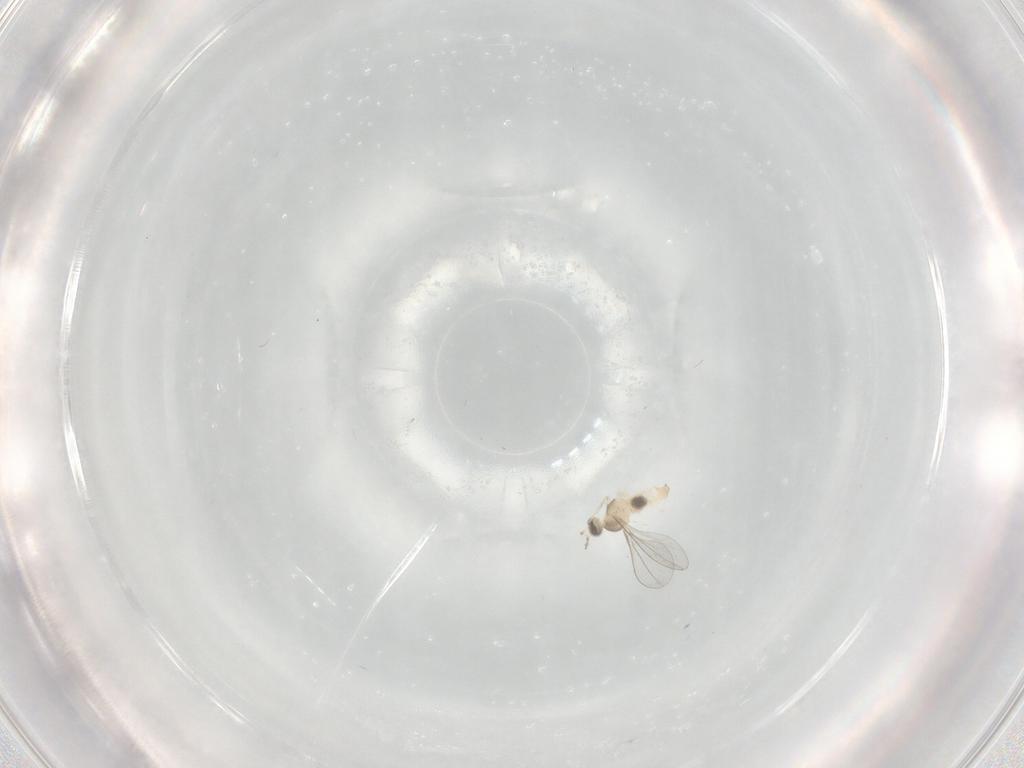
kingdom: Animalia
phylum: Arthropoda
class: Insecta
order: Diptera
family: Cecidomyiidae
